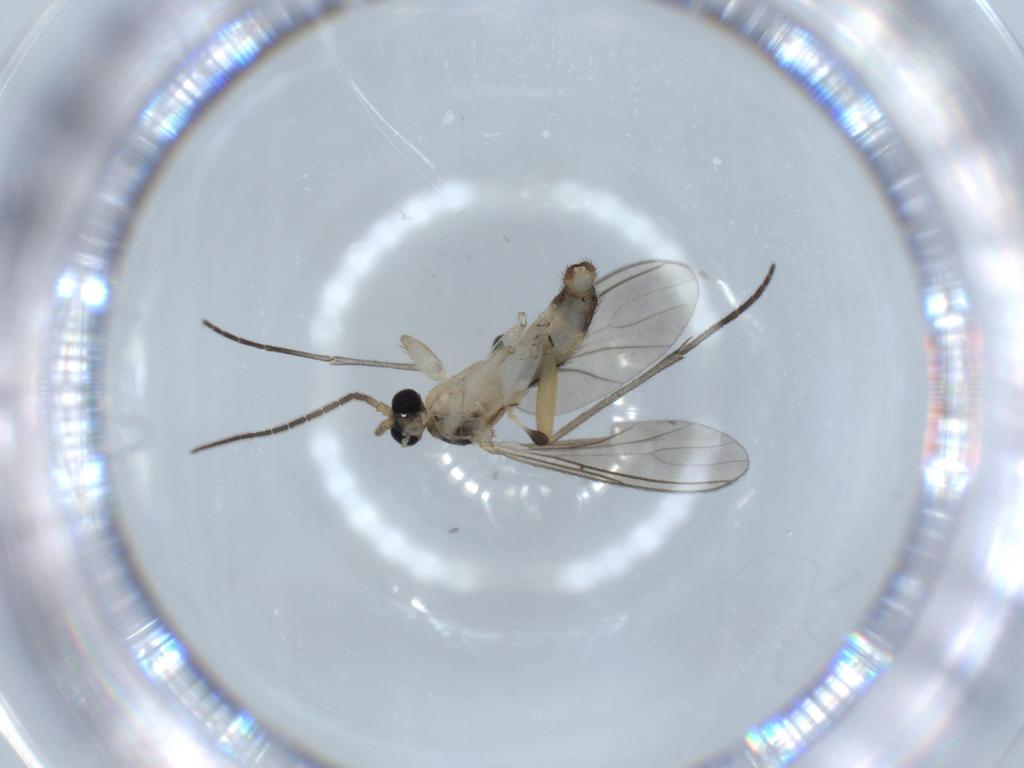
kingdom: Animalia
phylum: Arthropoda
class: Insecta
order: Diptera
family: Sciaridae
